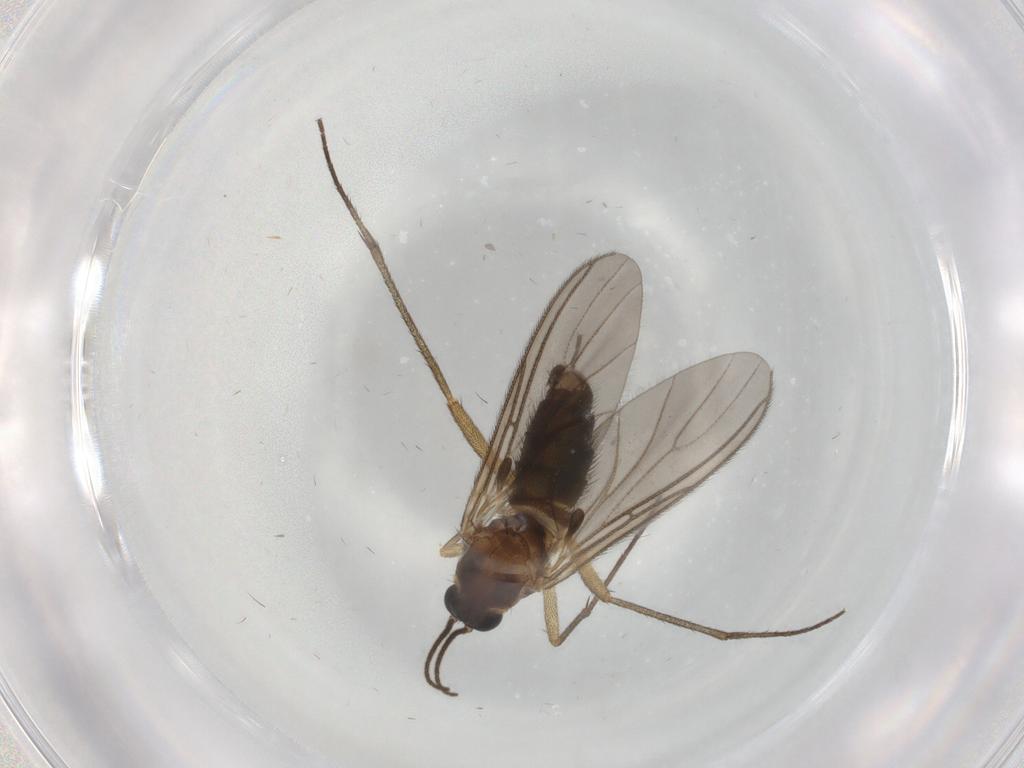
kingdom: Animalia
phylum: Arthropoda
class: Insecta
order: Diptera
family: Sciaridae
